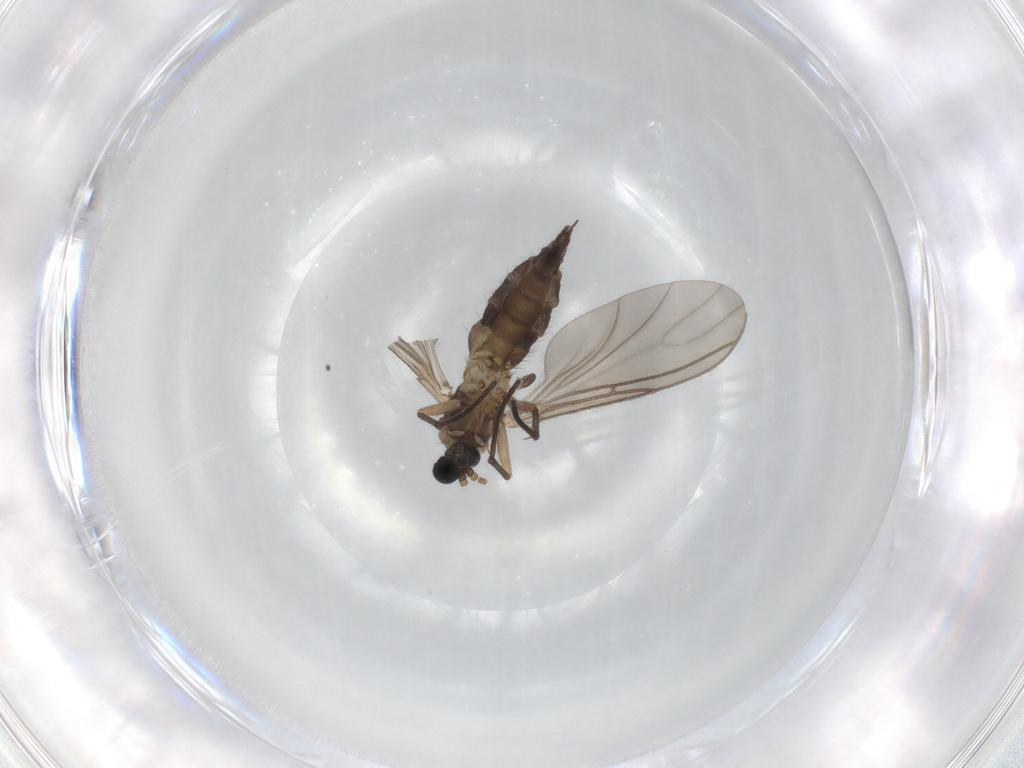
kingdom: Animalia
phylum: Arthropoda
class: Insecta
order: Diptera
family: Sciaridae
